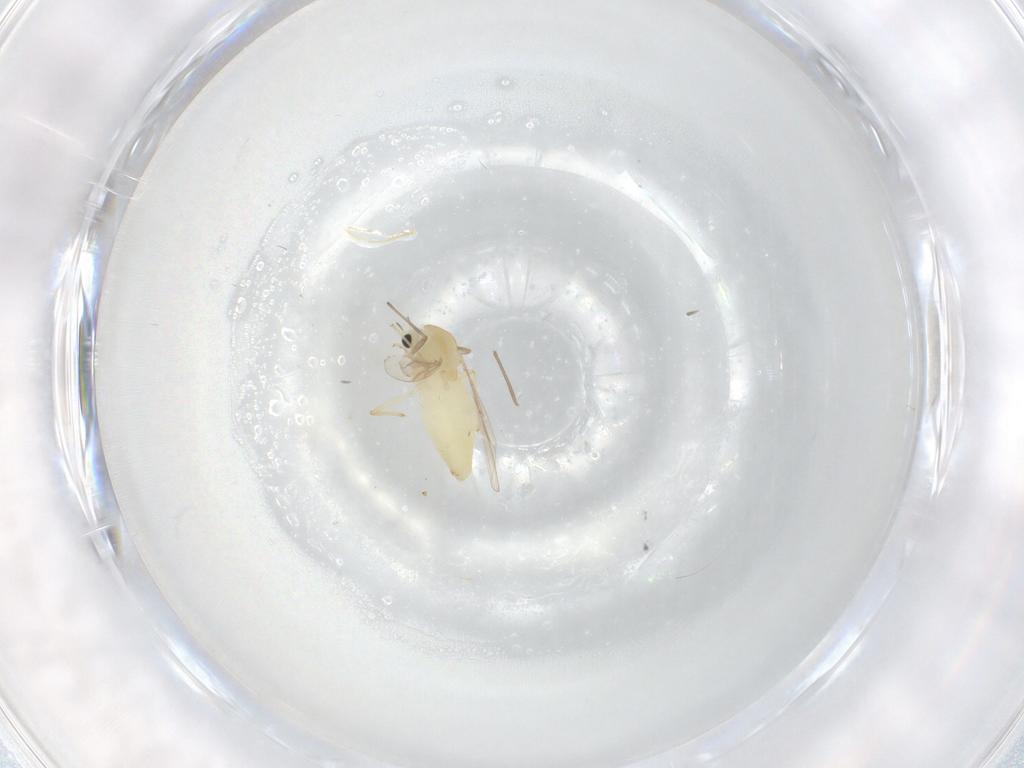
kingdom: Animalia
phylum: Arthropoda
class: Insecta
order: Diptera
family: Chironomidae
